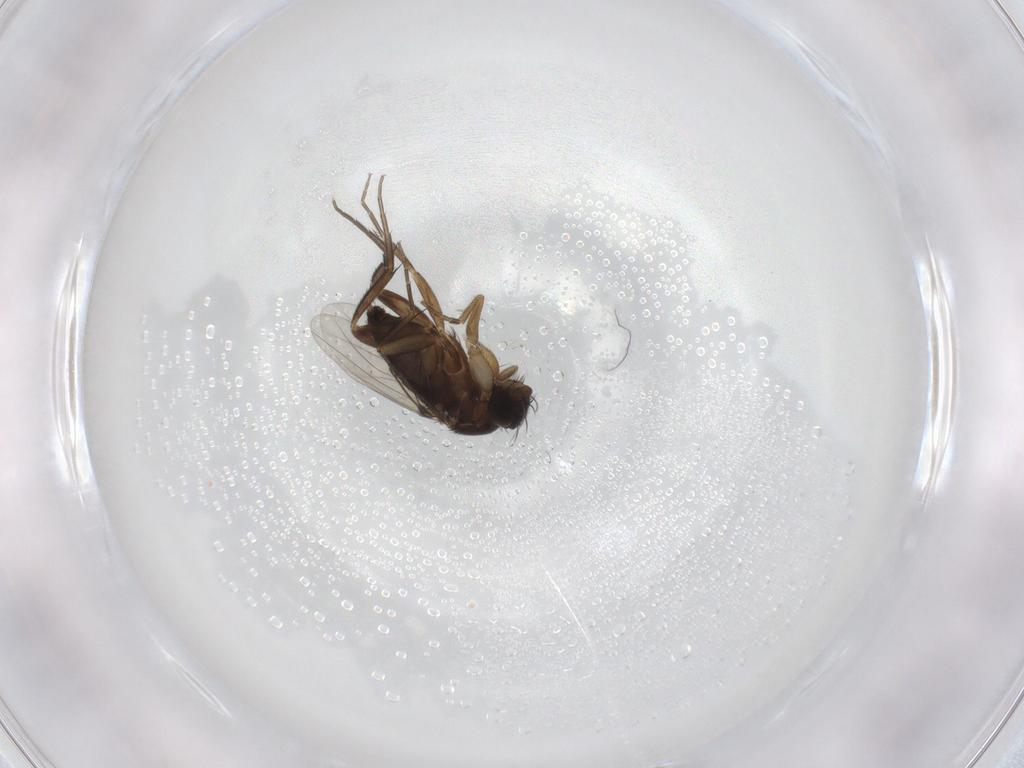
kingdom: Animalia
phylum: Arthropoda
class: Insecta
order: Diptera
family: Phoridae
